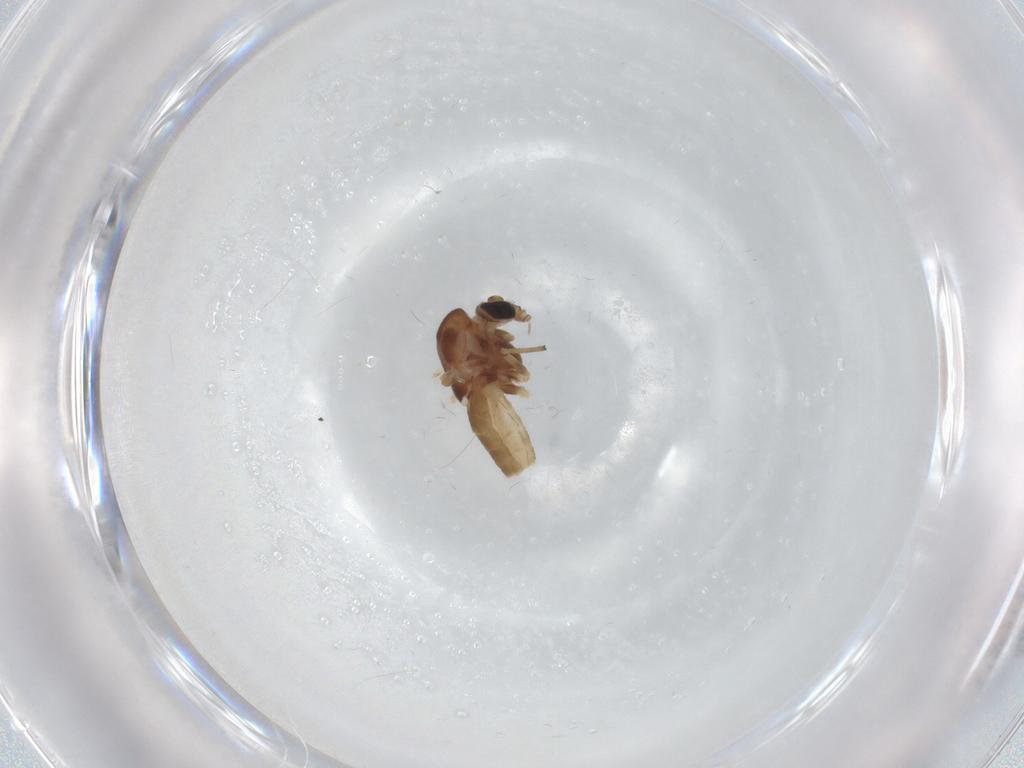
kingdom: Animalia
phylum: Arthropoda
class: Insecta
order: Diptera
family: Chironomidae
